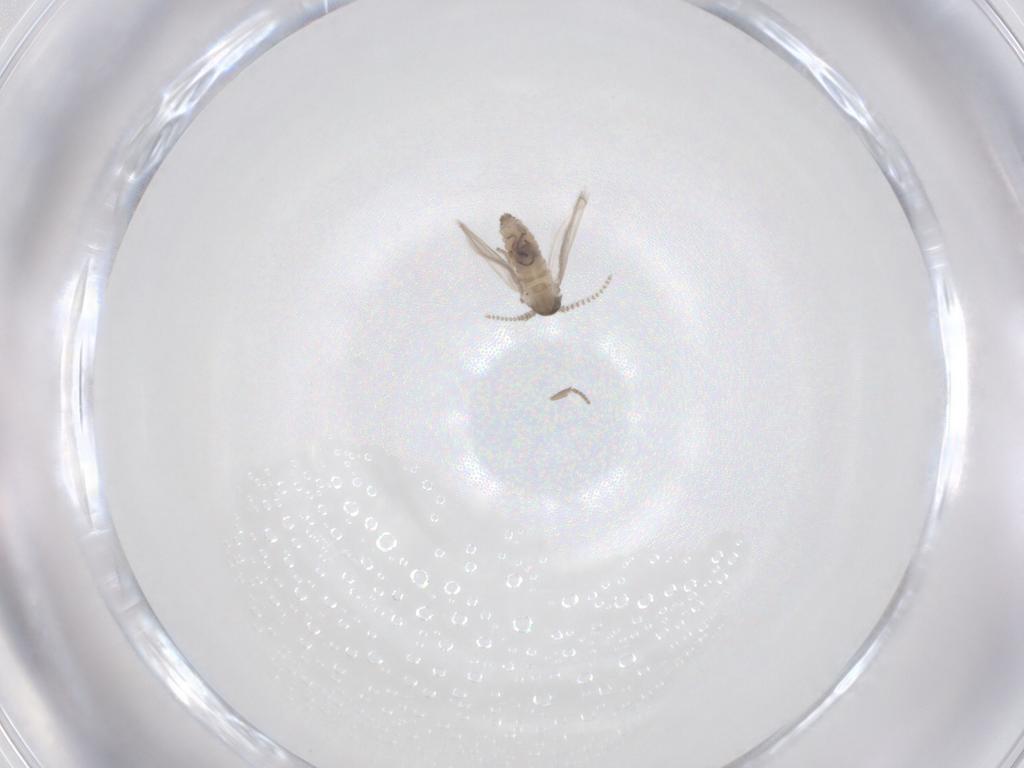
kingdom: Animalia
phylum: Arthropoda
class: Insecta
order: Diptera
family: Psychodidae
